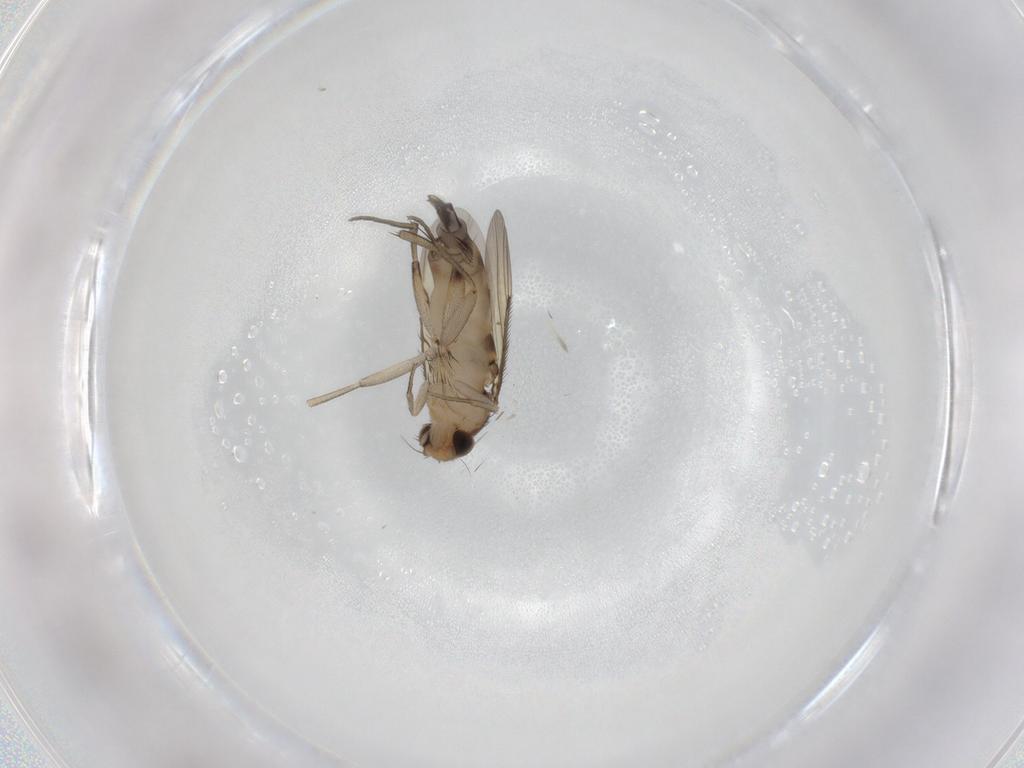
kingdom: Animalia
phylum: Arthropoda
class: Insecta
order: Diptera
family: Phoridae
